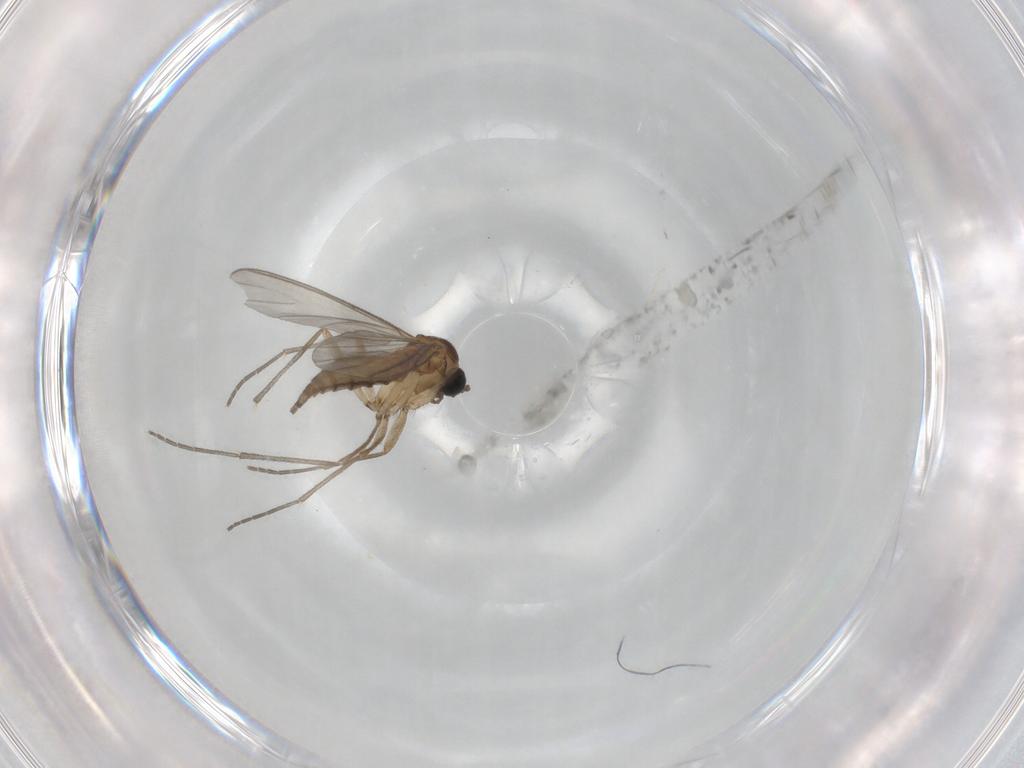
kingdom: Animalia
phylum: Arthropoda
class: Insecta
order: Diptera
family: Sciaridae
